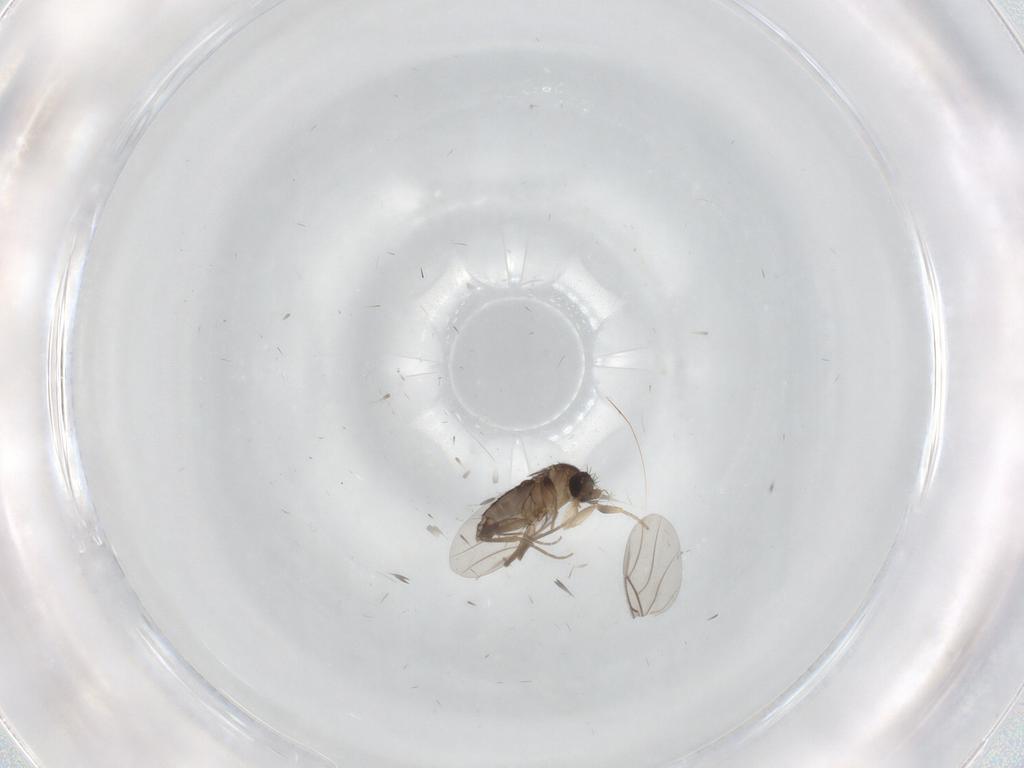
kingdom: Animalia
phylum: Arthropoda
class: Insecta
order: Diptera
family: Phoridae
